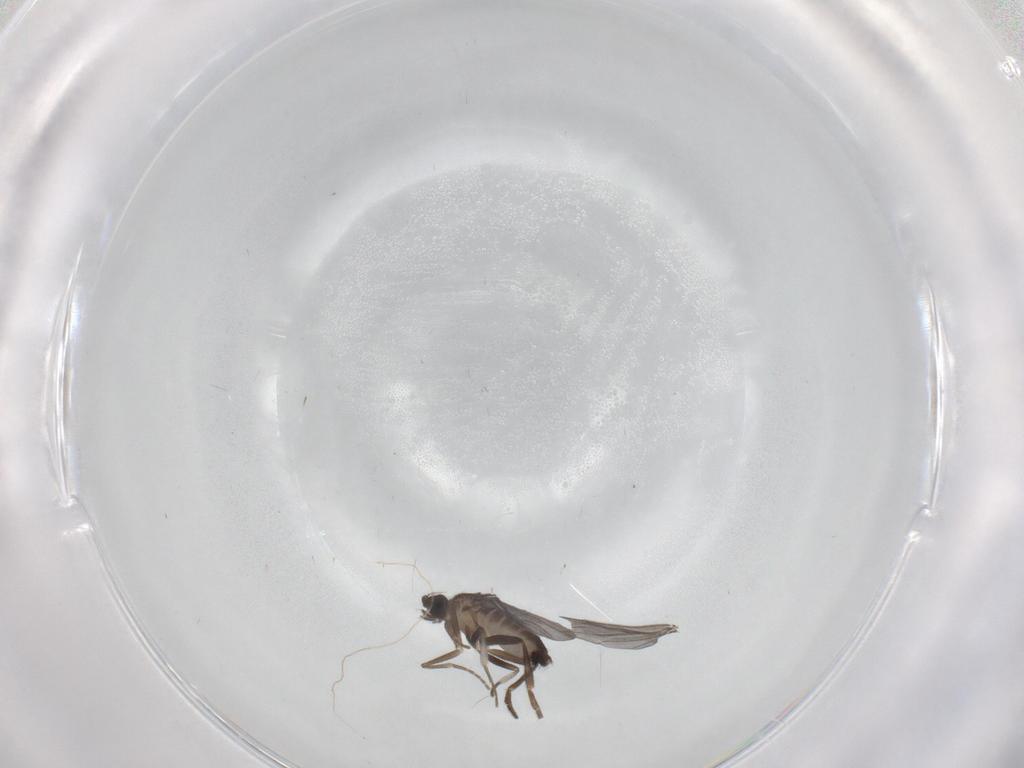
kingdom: Animalia
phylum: Arthropoda
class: Insecta
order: Diptera
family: Phoridae
